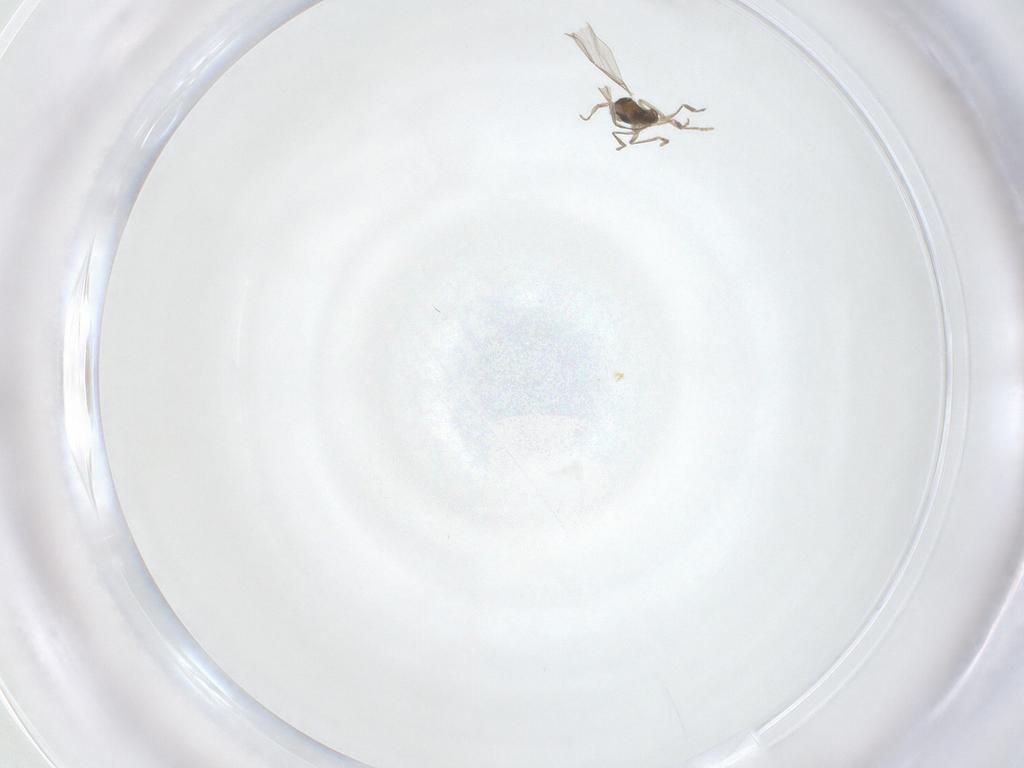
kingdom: Animalia
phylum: Arthropoda
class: Insecta
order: Diptera
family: Cecidomyiidae
